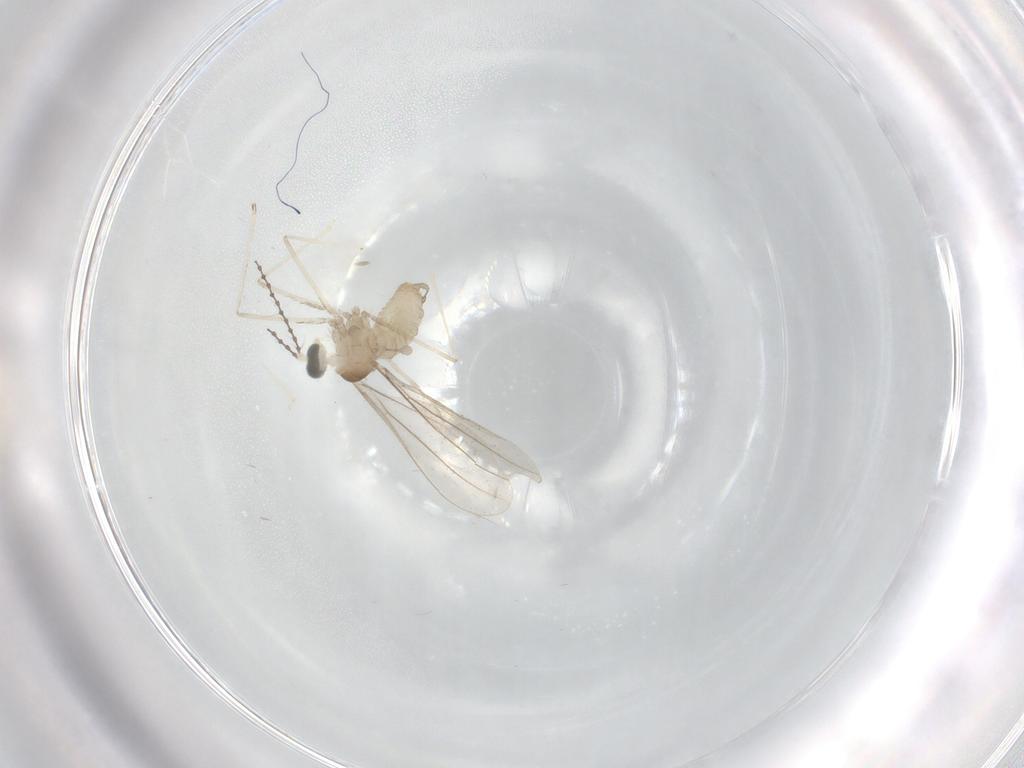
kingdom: Animalia
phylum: Arthropoda
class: Insecta
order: Diptera
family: Cecidomyiidae
